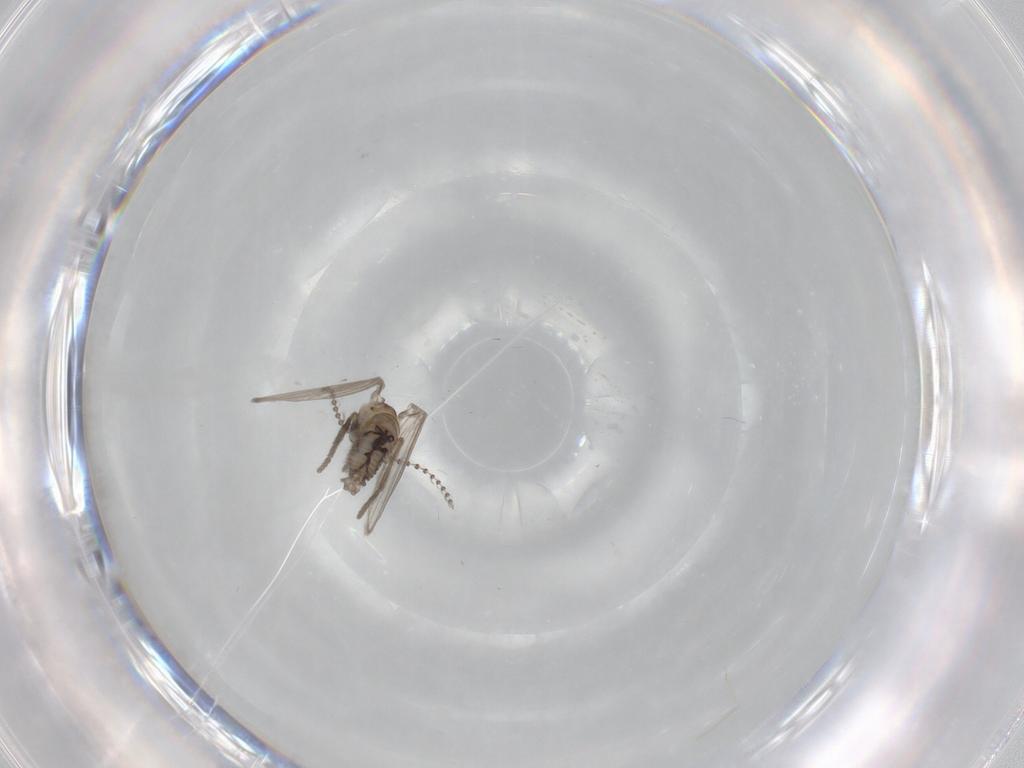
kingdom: Animalia
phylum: Arthropoda
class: Insecta
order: Diptera
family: Psychodidae
